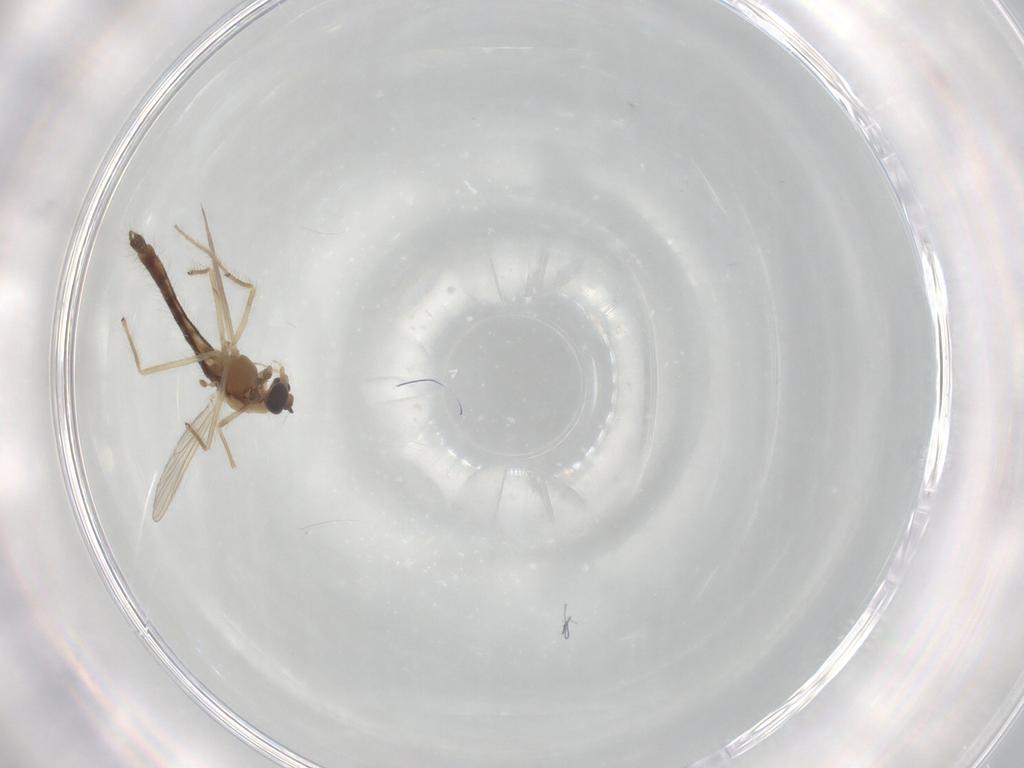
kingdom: Animalia
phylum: Arthropoda
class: Insecta
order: Diptera
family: Chironomidae
